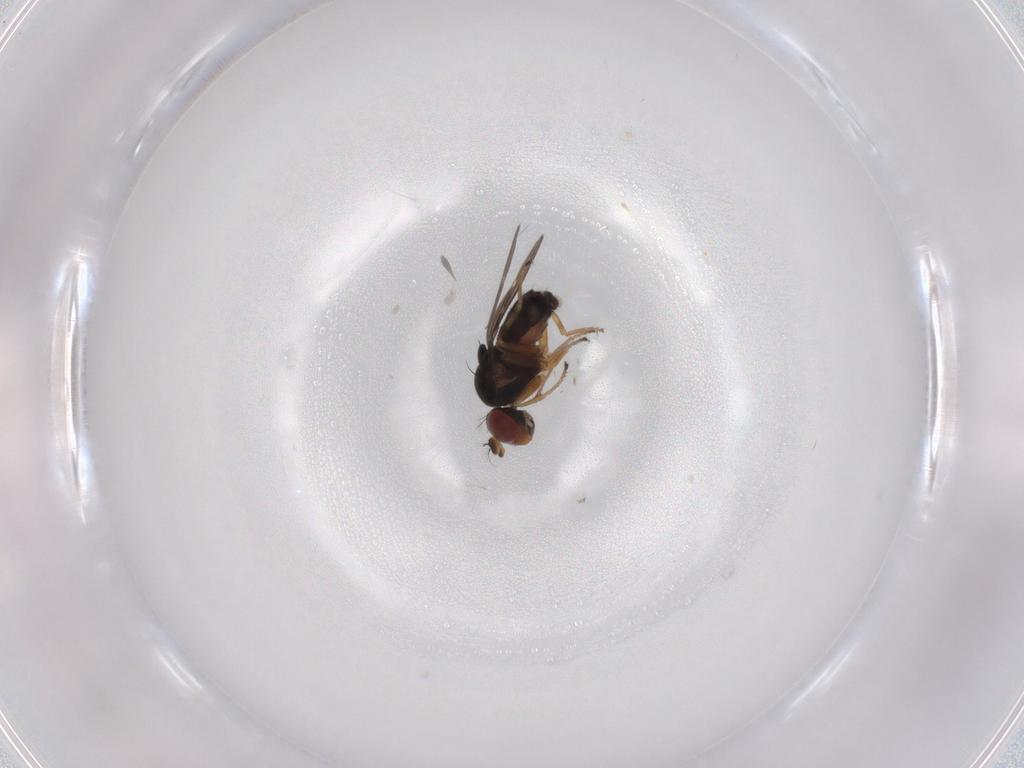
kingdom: Animalia
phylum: Arthropoda
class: Insecta
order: Diptera
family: Ephydridae
